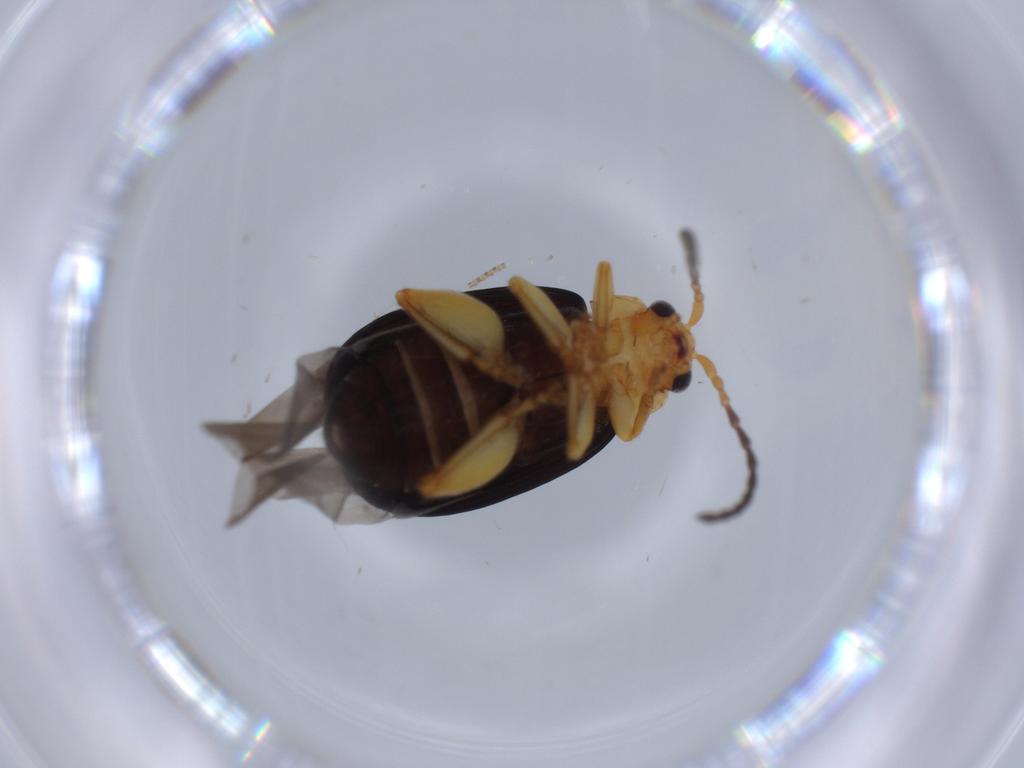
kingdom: Animalia
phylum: Arthropoda
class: Insecta
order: Coleoptera
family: Chrysomelidae
